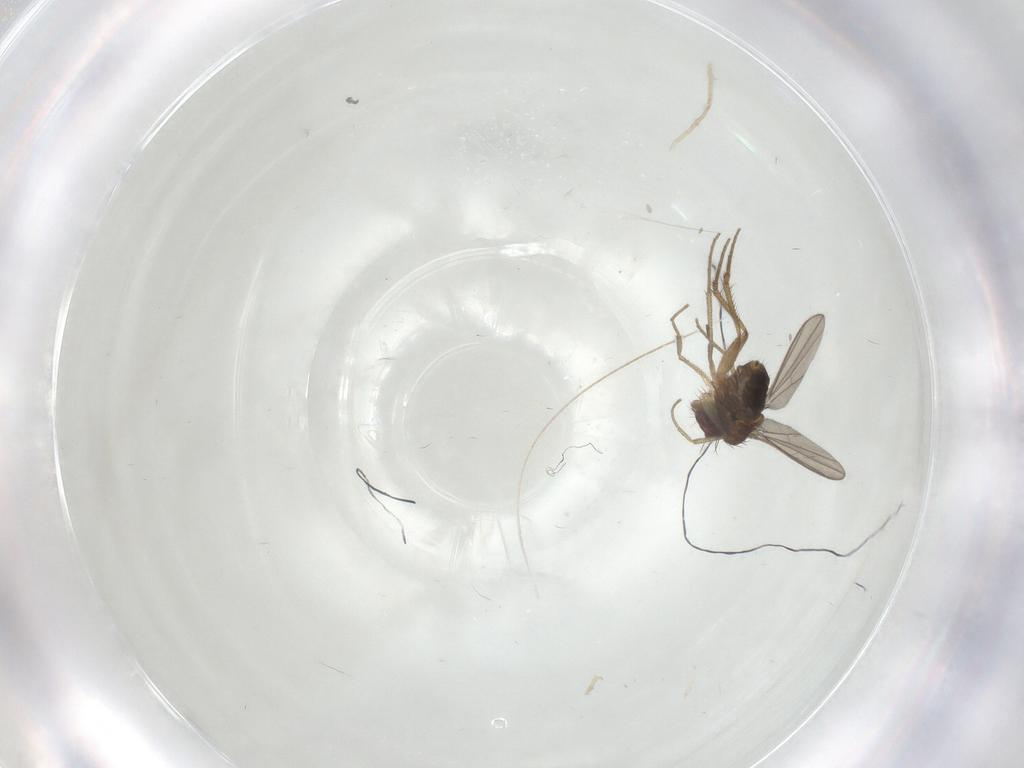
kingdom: Animalia
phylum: Arthropoda
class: Insecta
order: Diptera
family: Dolichopodidae
